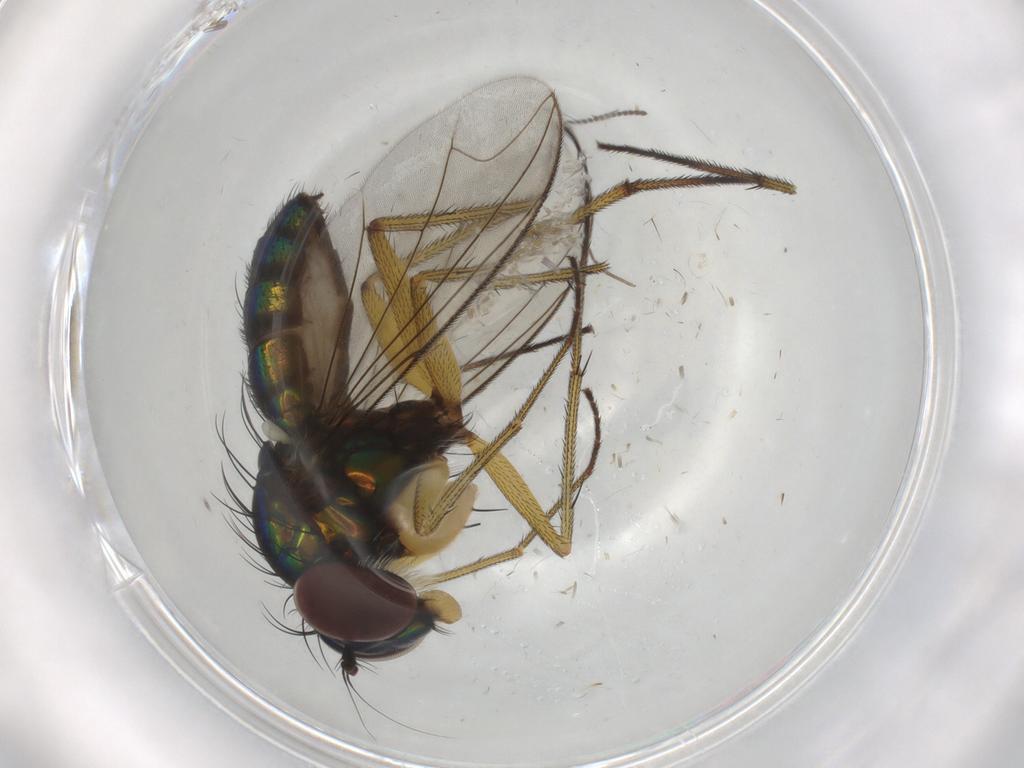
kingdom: Animalia
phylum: Arthropoda
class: Insecta
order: Diptera
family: Dolichopodidae
